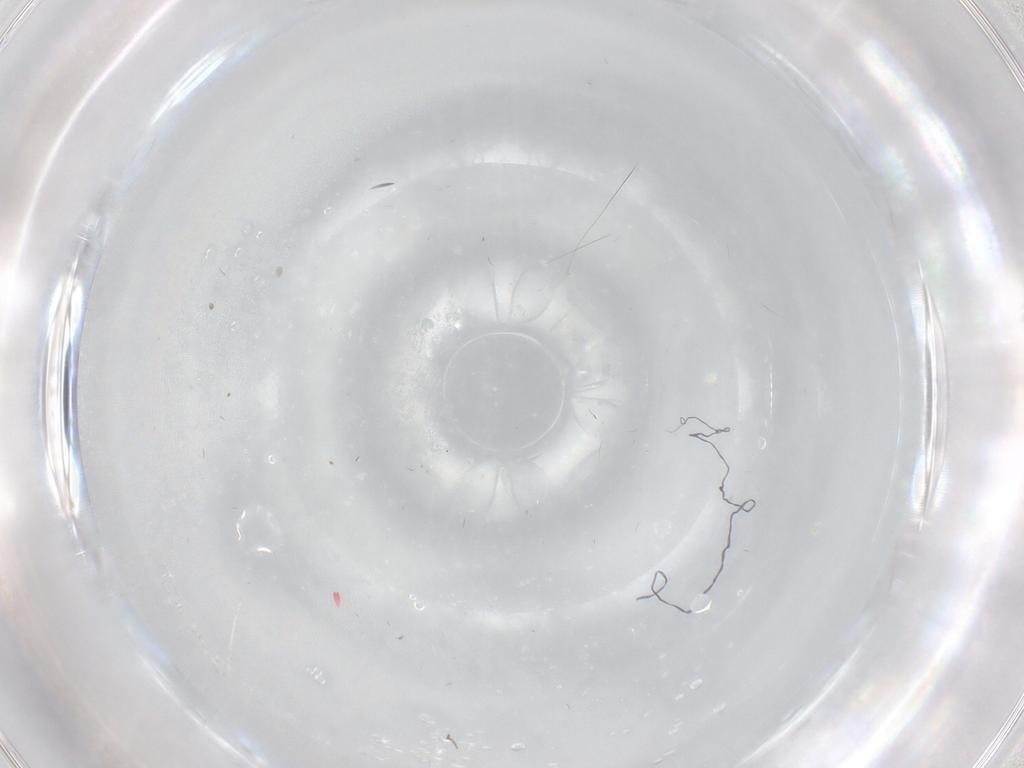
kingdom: Animalia
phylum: Arthropoda
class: Insecta
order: Diptera
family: Chironomidae
